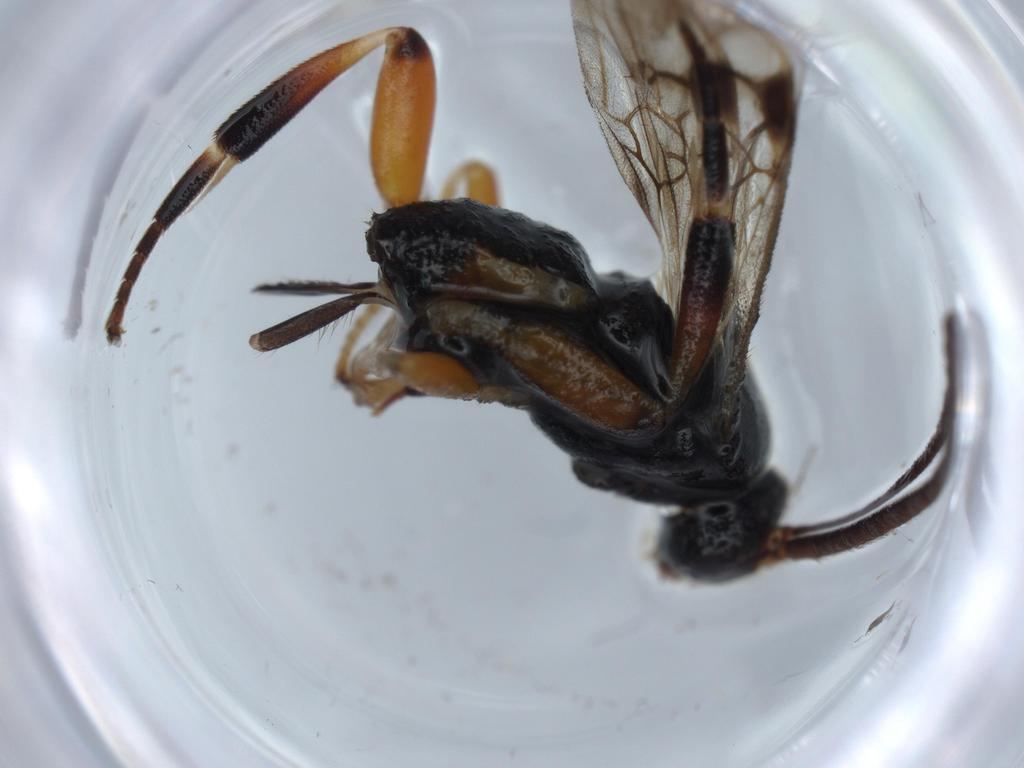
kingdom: Animalia
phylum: Arthropoda
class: Insecta
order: Hymenoptera
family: Braconidae
